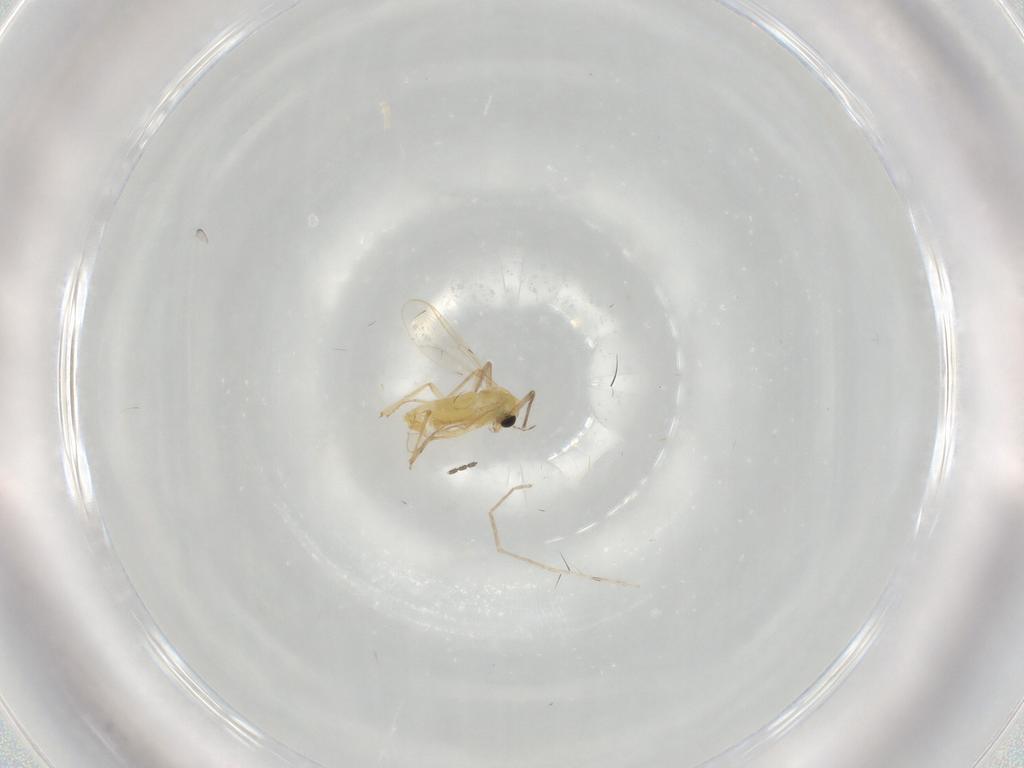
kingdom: Animalia
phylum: Arthropoda
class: Insecta
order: Diptera
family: Chironomidae
